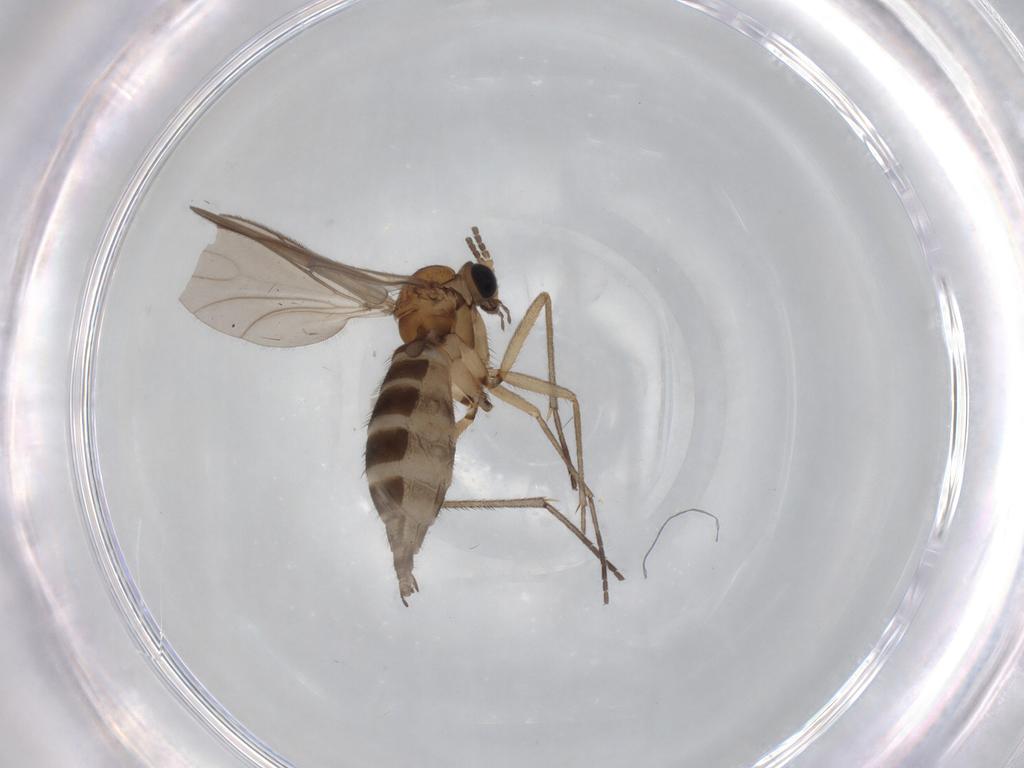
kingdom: Animalia
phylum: Arthropoda
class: Insecta
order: Diptera
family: Sciaridae
